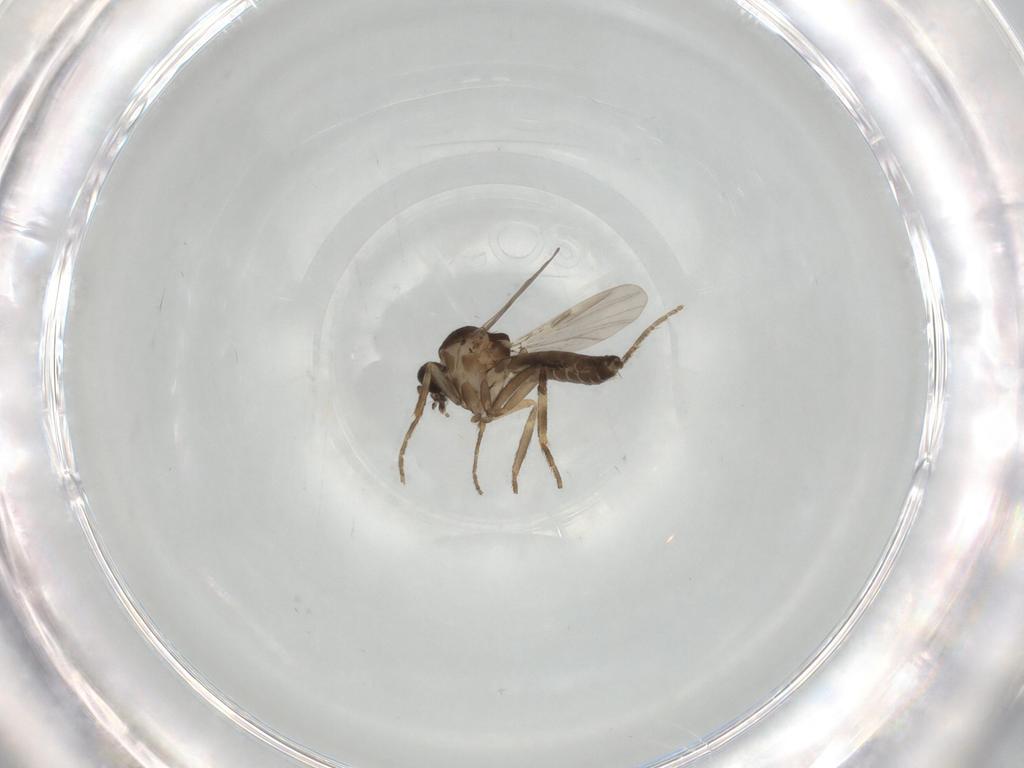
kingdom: Animalia
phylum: Arthropoda
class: Insecta
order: Diptera
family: Ceratopogonidae
